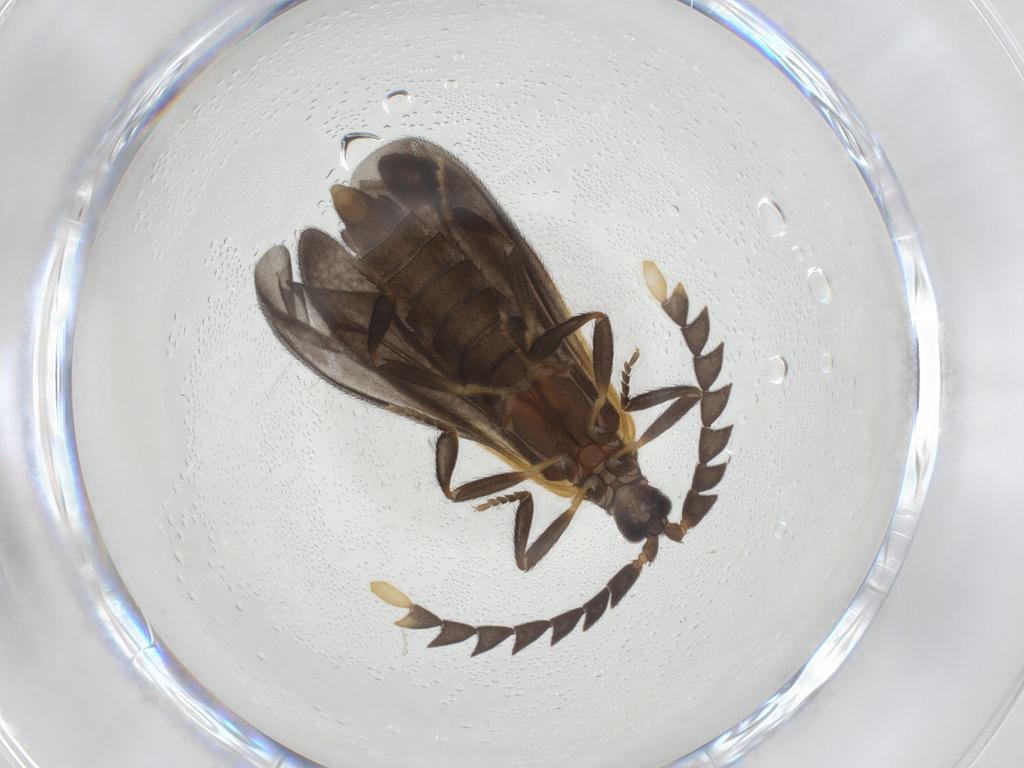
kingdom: Animalia
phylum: Arthropoda
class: Insecta
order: Coleoptera
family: Lycidae
